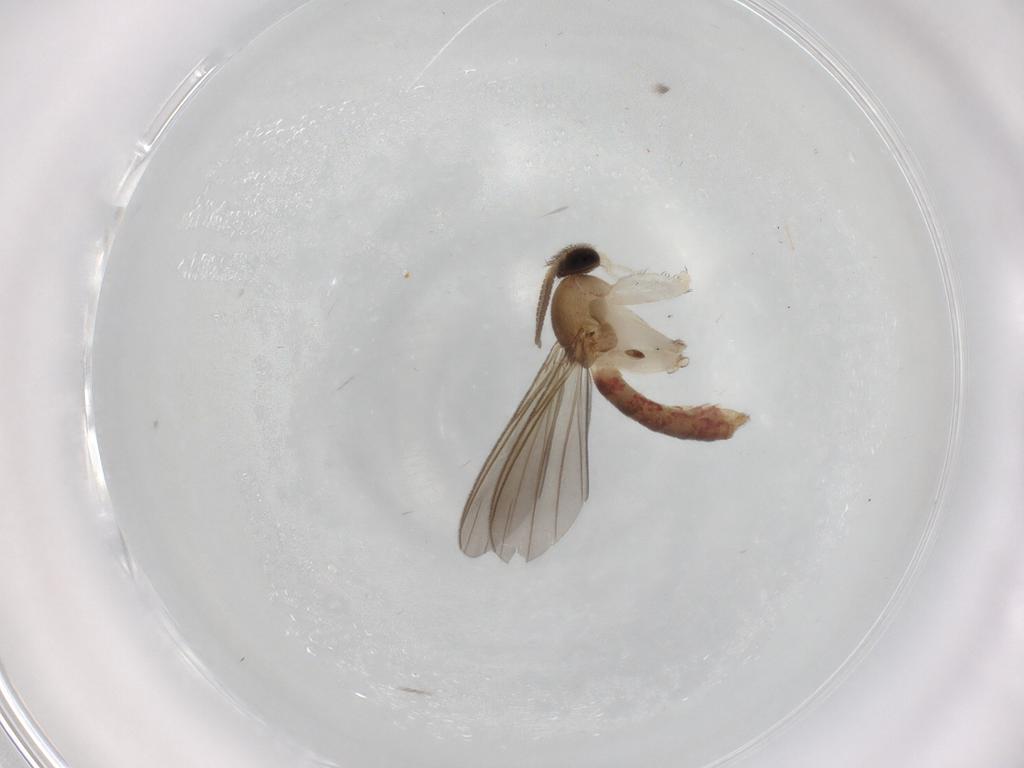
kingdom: Animalia
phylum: Arthropoda
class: Insecta
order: Diptera
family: Mycetophilidae
